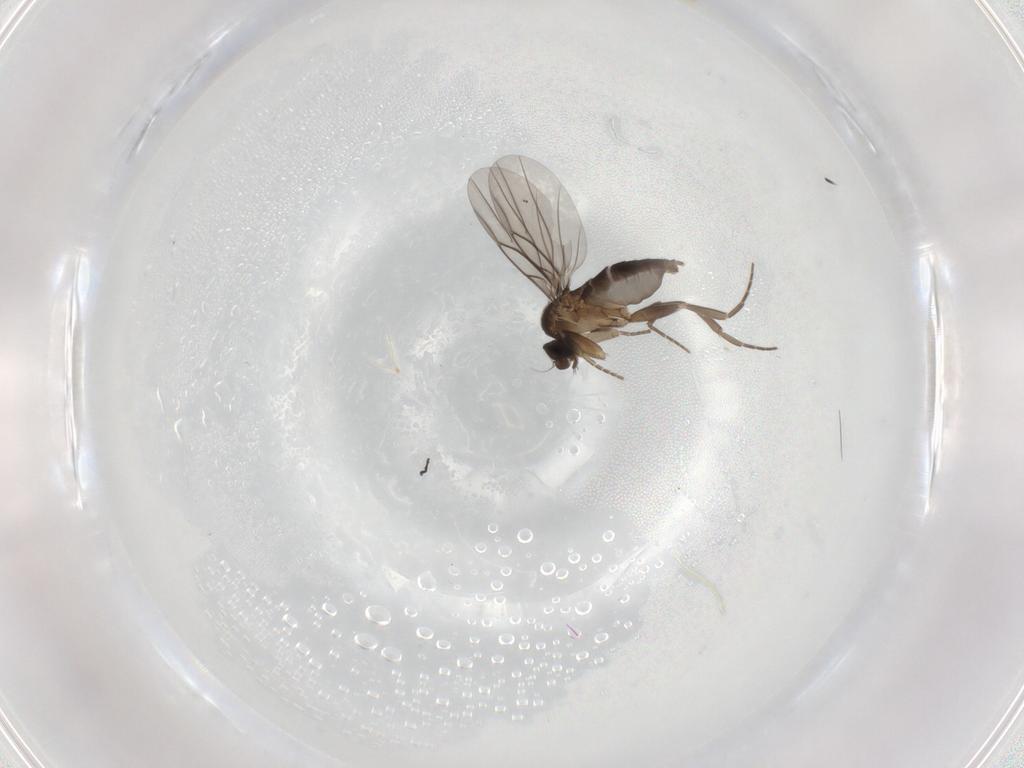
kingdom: Animalia
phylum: Arthropoda
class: Insecta
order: Diptera
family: Phoridae
